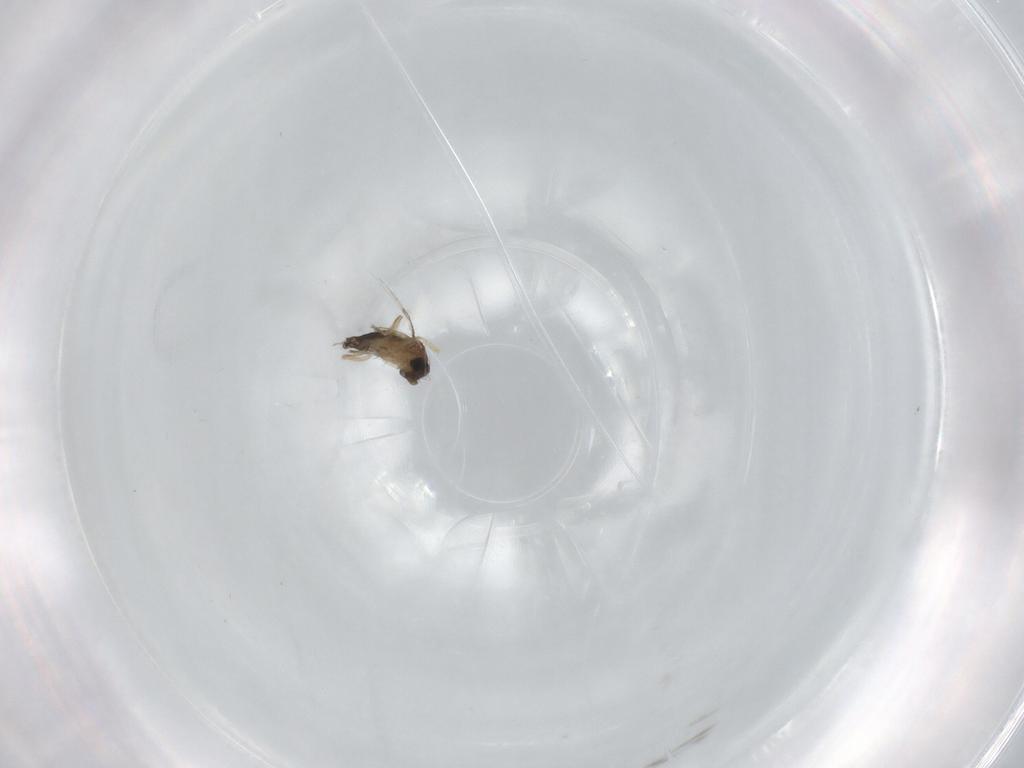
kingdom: Animalia
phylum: Arthropoda
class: Insecta
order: Diptera
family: Phoridae
